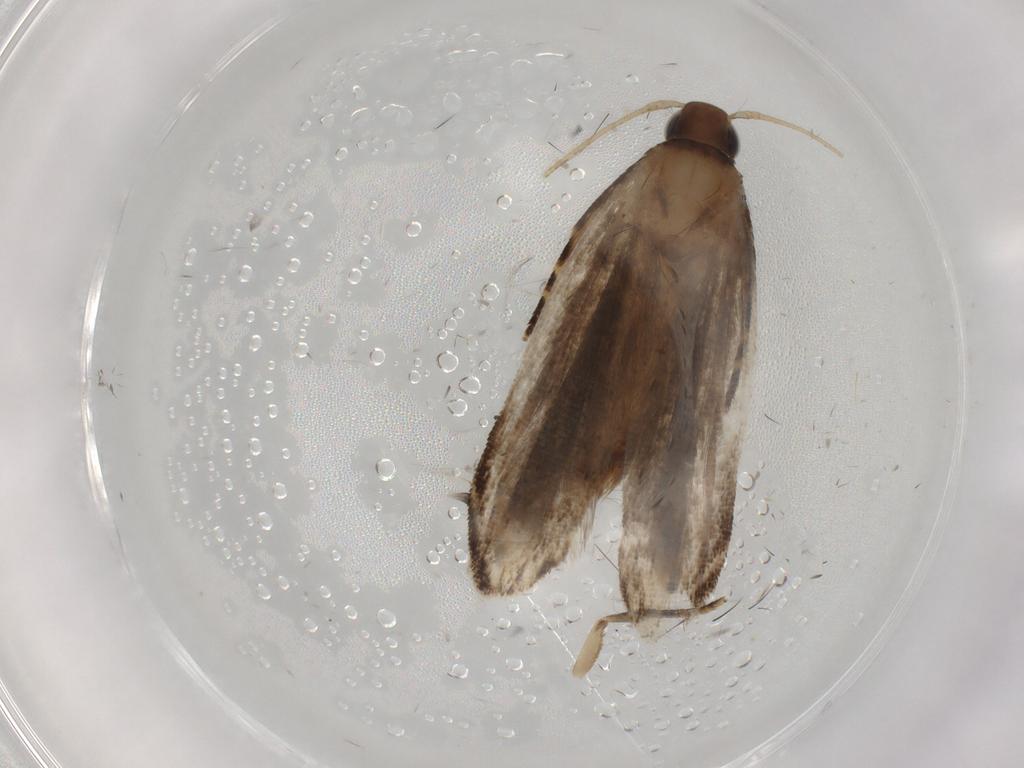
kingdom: Animalia
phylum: Arthropoda
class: Insecta
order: Lepidoptera
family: Gelechiidae
